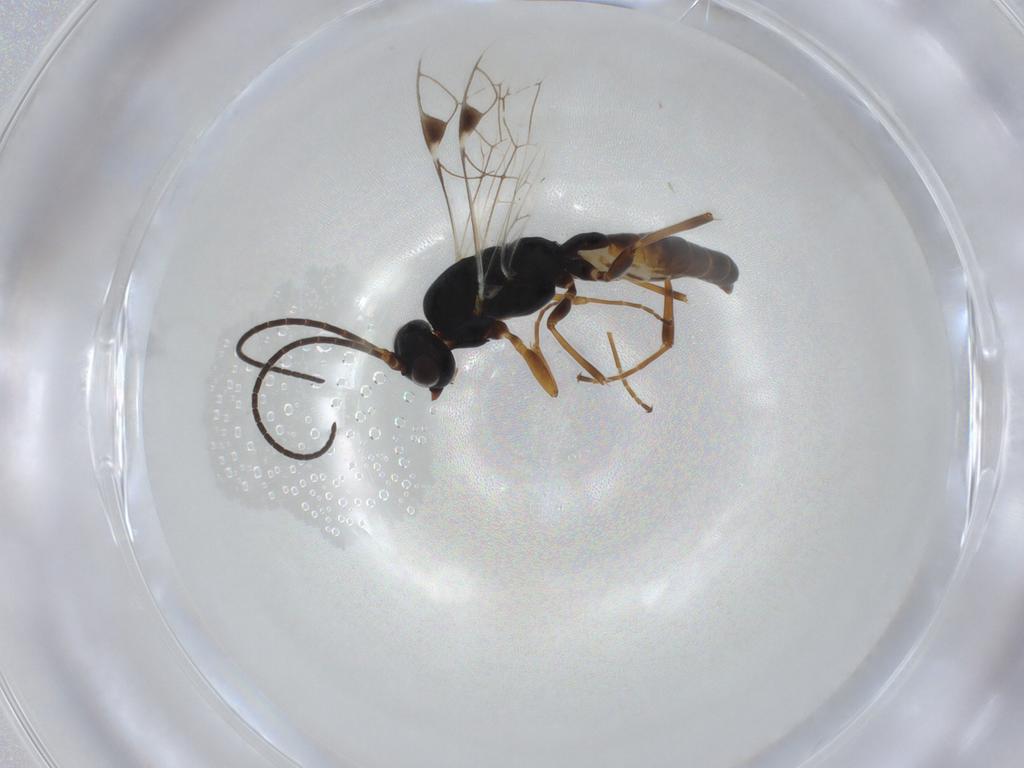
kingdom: Animalia
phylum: Arthropoda
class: Insecta
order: Hymenoptera
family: Ichneumonidae
